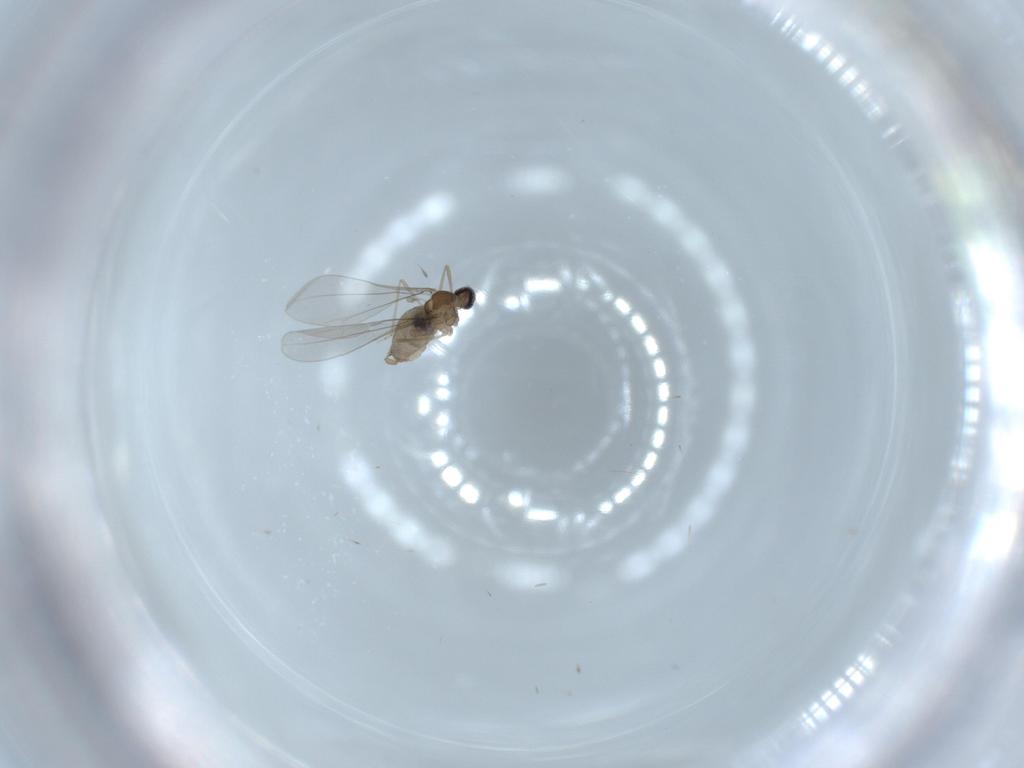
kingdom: Animalia
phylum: Arthropoda
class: Insecta
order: Diptera
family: Cecidomyiidae
